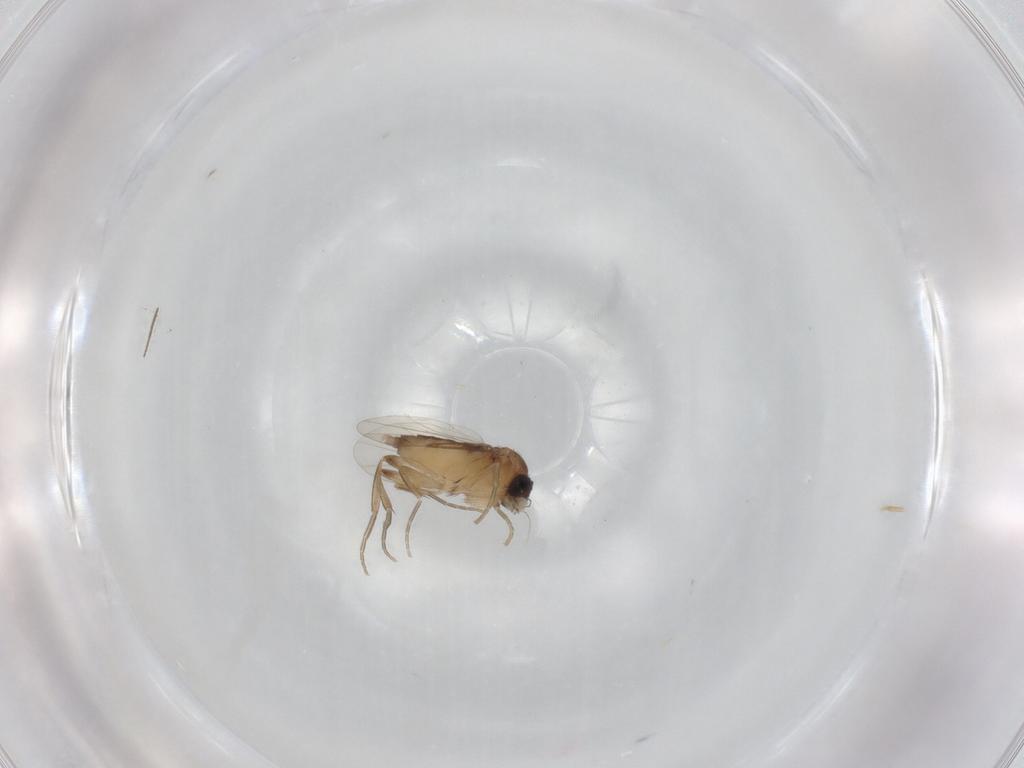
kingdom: Animalia
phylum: Arthropoda
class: Insecta
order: Diptera
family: Phoridae
